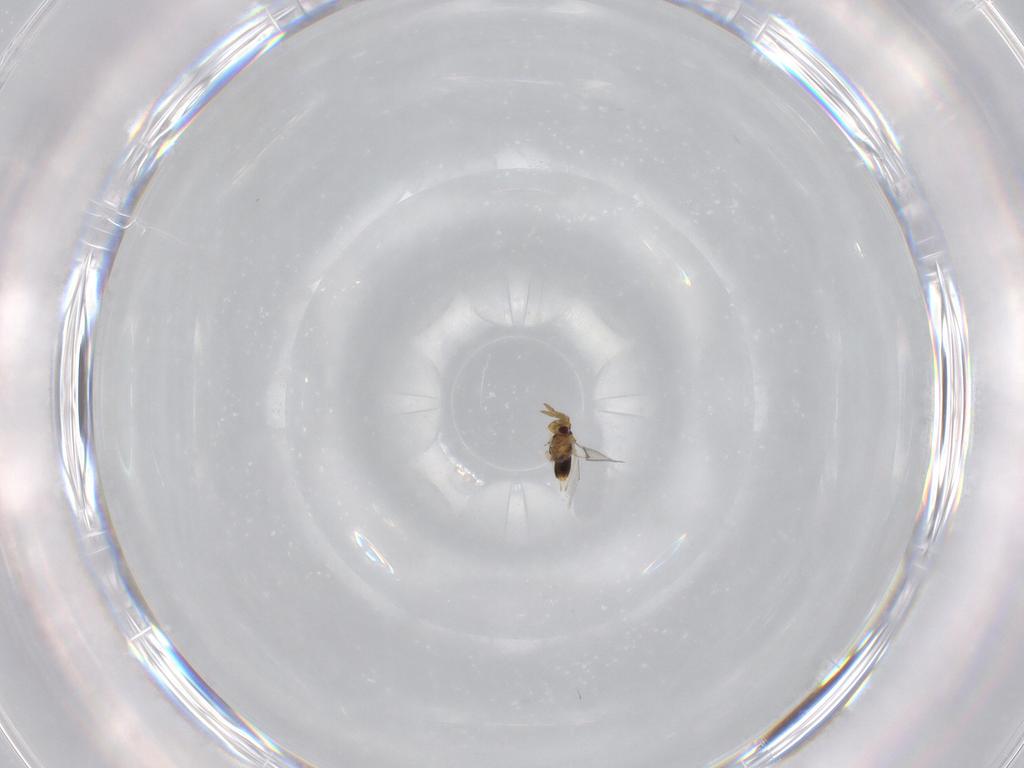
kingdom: Animalia
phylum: Arthropoda
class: Insecta
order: Hymenoptera
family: Aphelinidae
